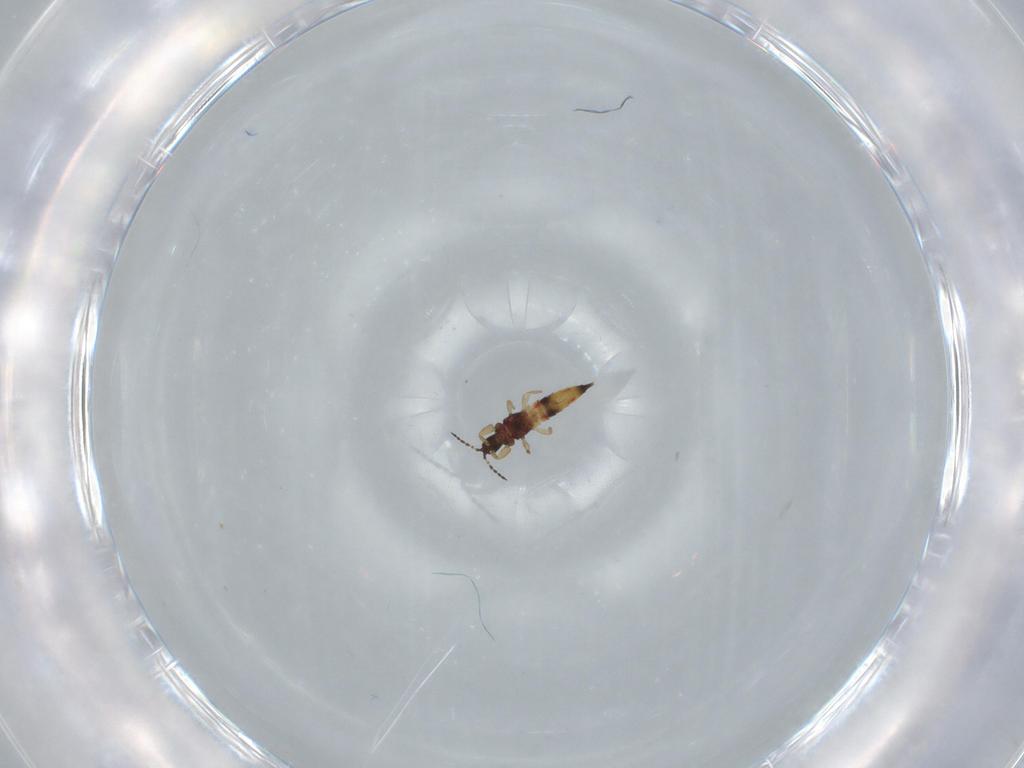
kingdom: Animalia
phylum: Arthropoda
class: Insecta
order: Thysanoptera
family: Phlaeothripidae
